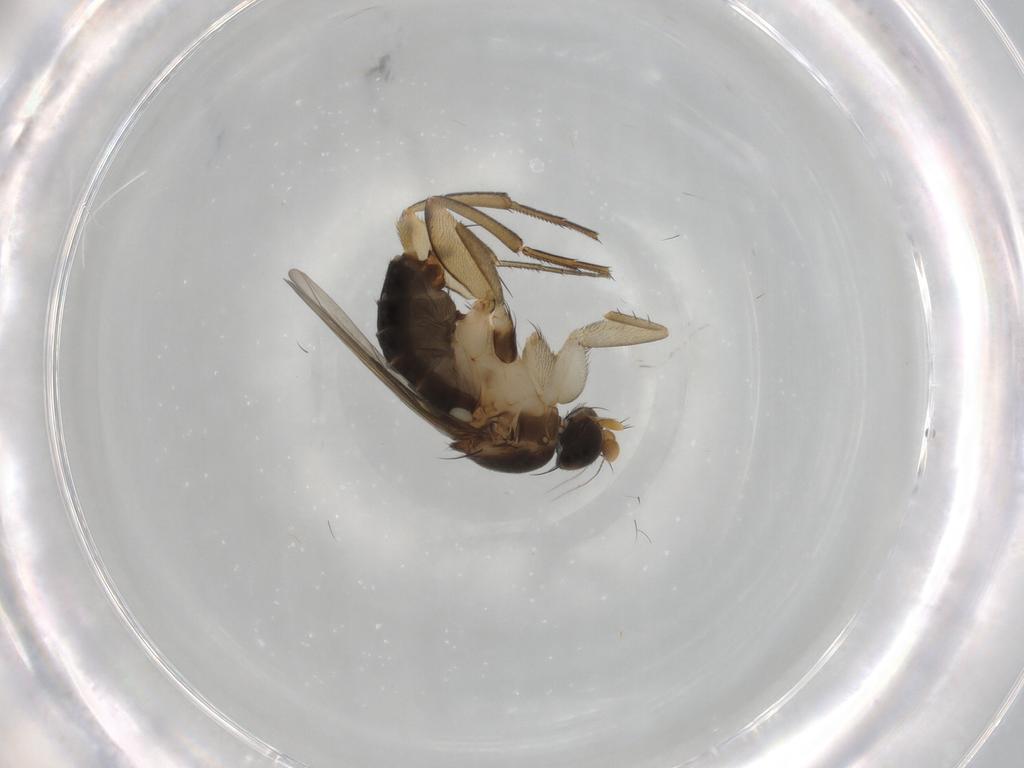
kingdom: Animalia
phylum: Arthropoda
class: Insecta
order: Diptera
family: Phoridae
